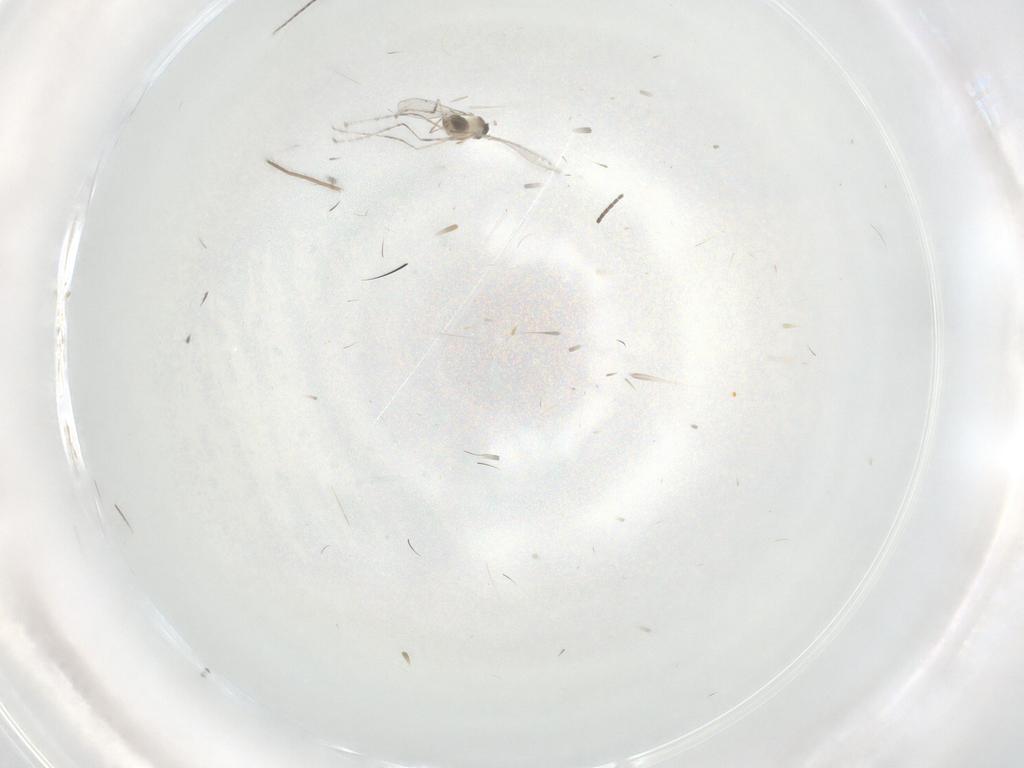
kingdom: Animalia
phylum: Arthropoda
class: Insecta
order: Diptera
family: Cecidomyiidae
